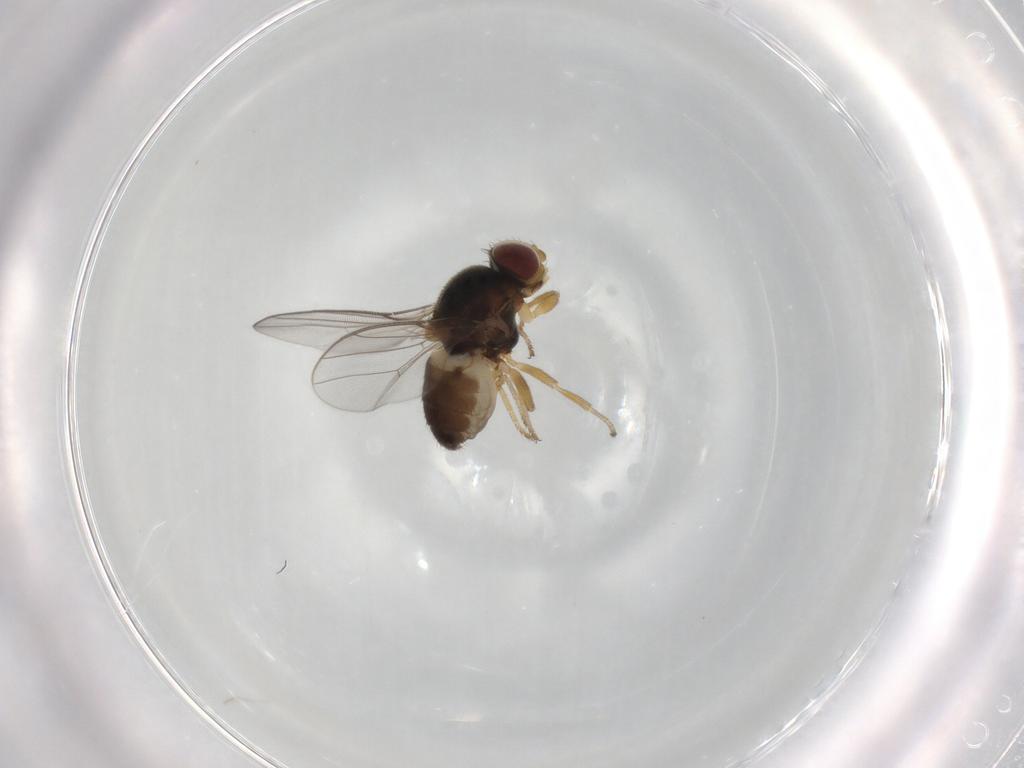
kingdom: Animalia
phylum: Arthropoda
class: Insecta
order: Diptera
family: Chloropidae
